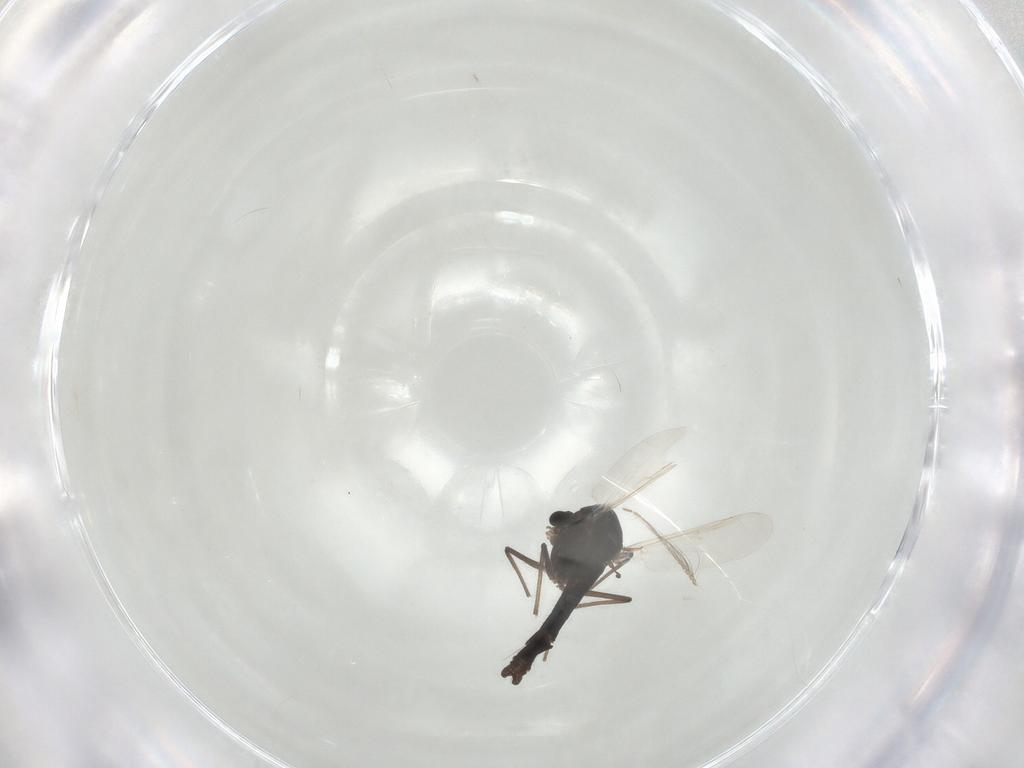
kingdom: Animalia
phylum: Arthropoda
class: Insecta
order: Diptera
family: Chironomidae
